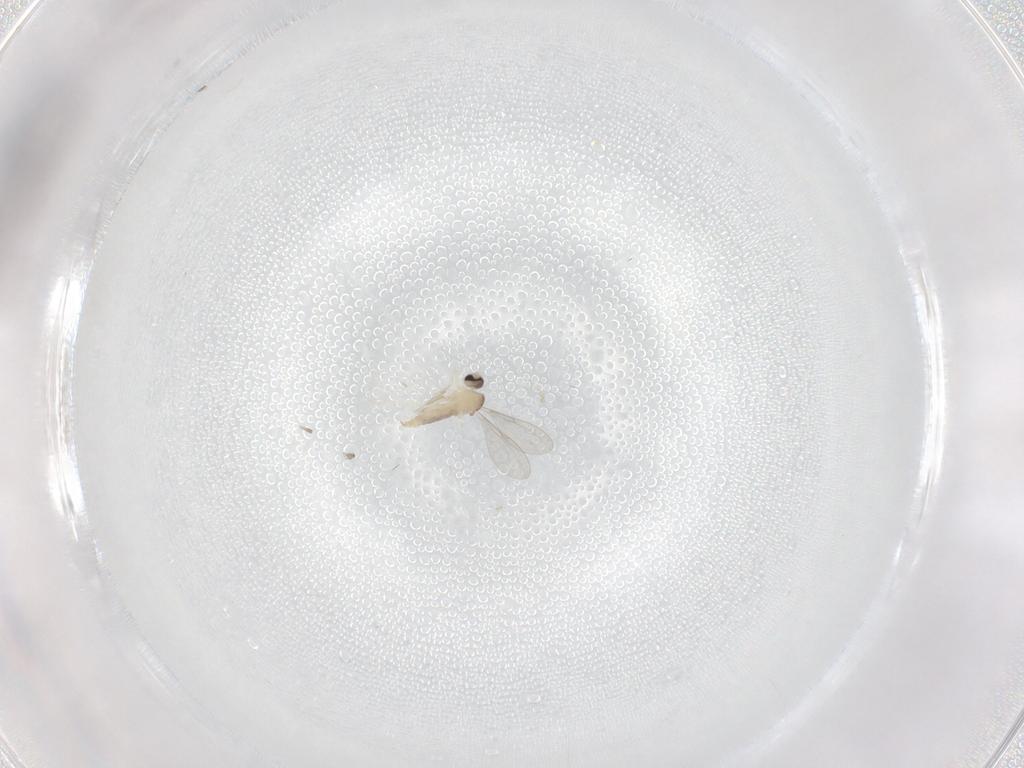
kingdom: Animalia
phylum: Arthropoda
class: Insecta
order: Diptera
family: Cecidomyiidae
